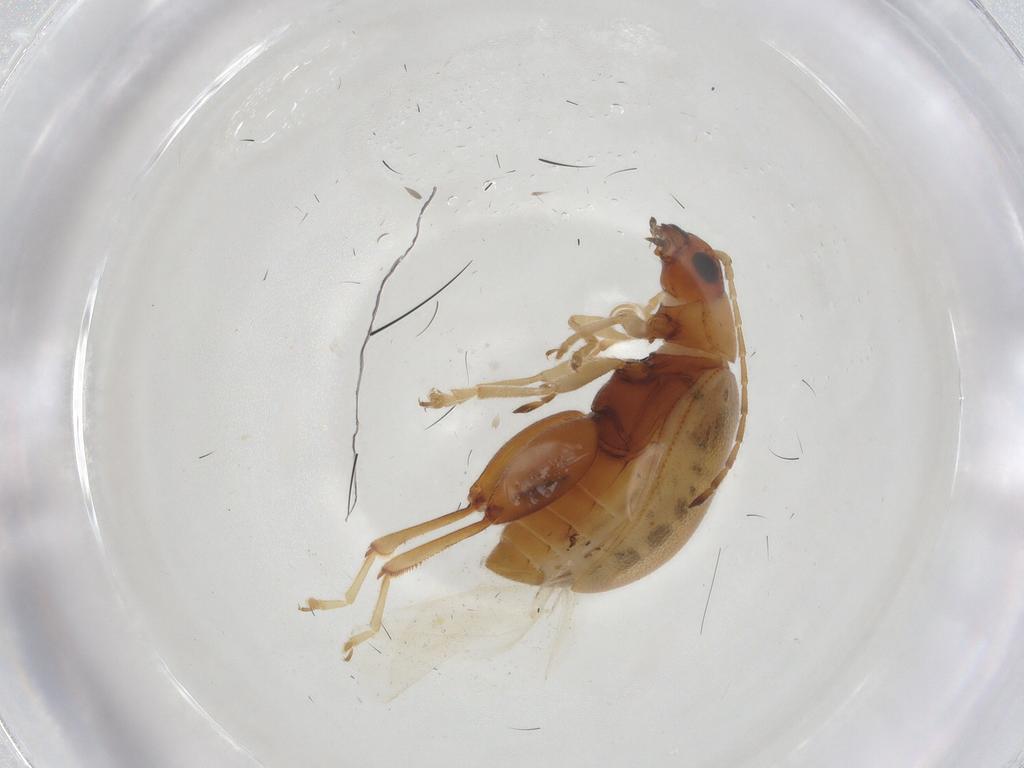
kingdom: Animalia
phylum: Arthropoda
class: Insecta
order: Coleoptera
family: Chrysomelidae
